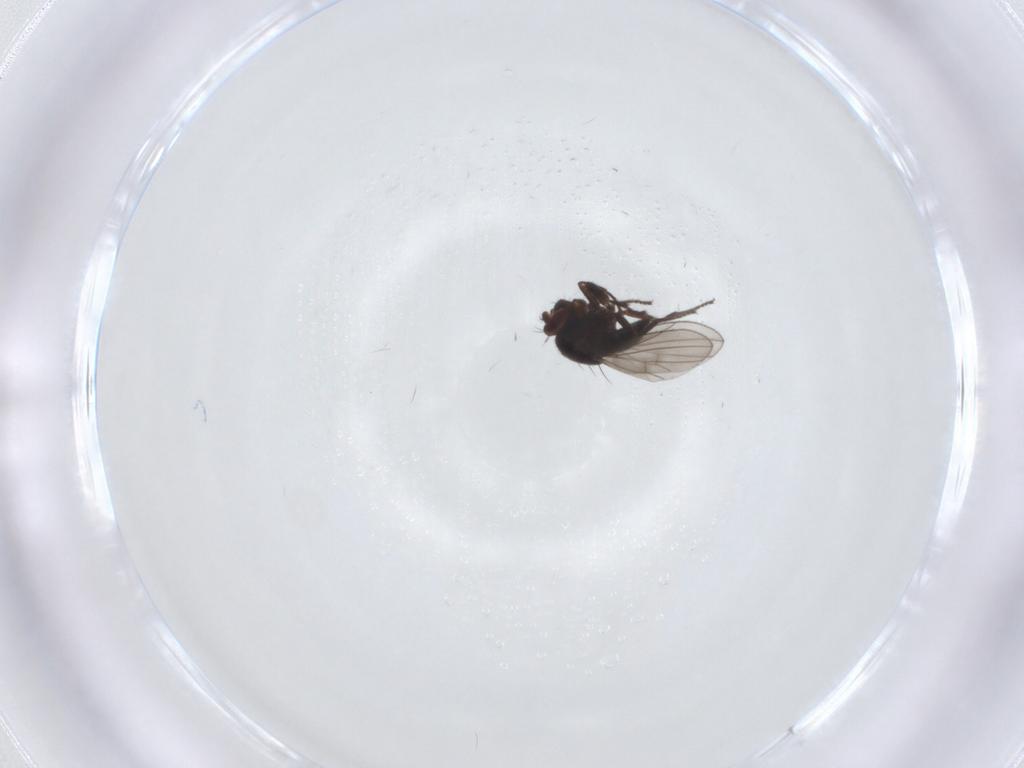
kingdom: Animalia
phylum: Arthropoda
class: Insecta
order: Diptera
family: Ephydridae
